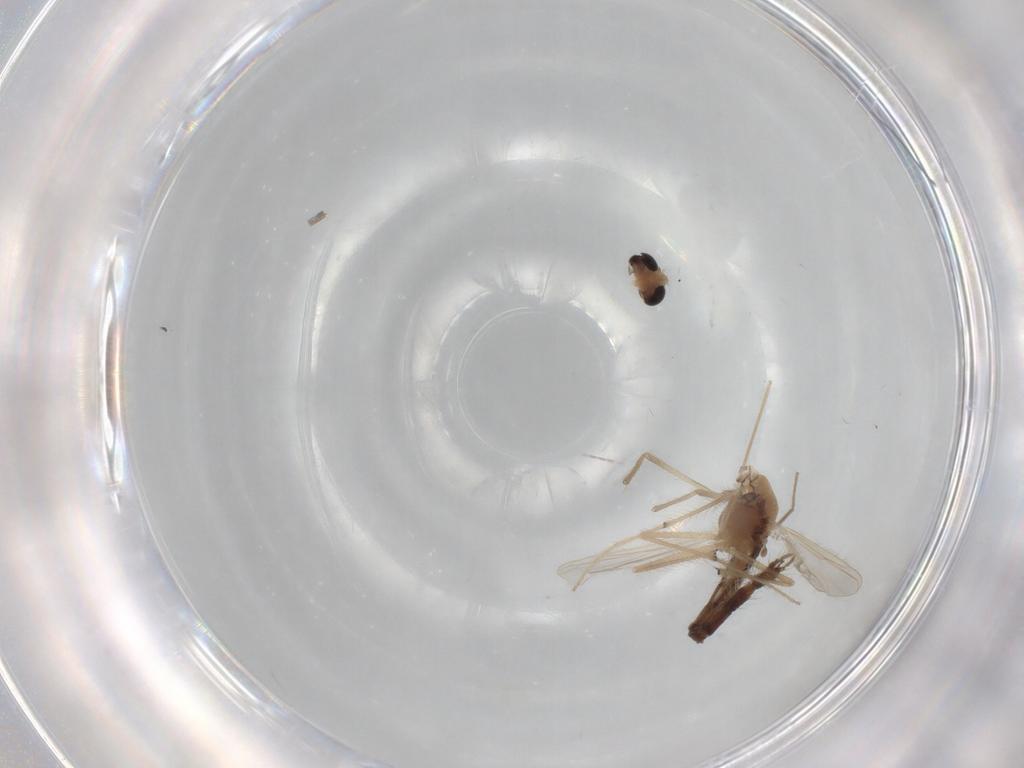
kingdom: Animalia
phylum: Arthropoda
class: Insecta
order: Diptera
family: Chironomidae
